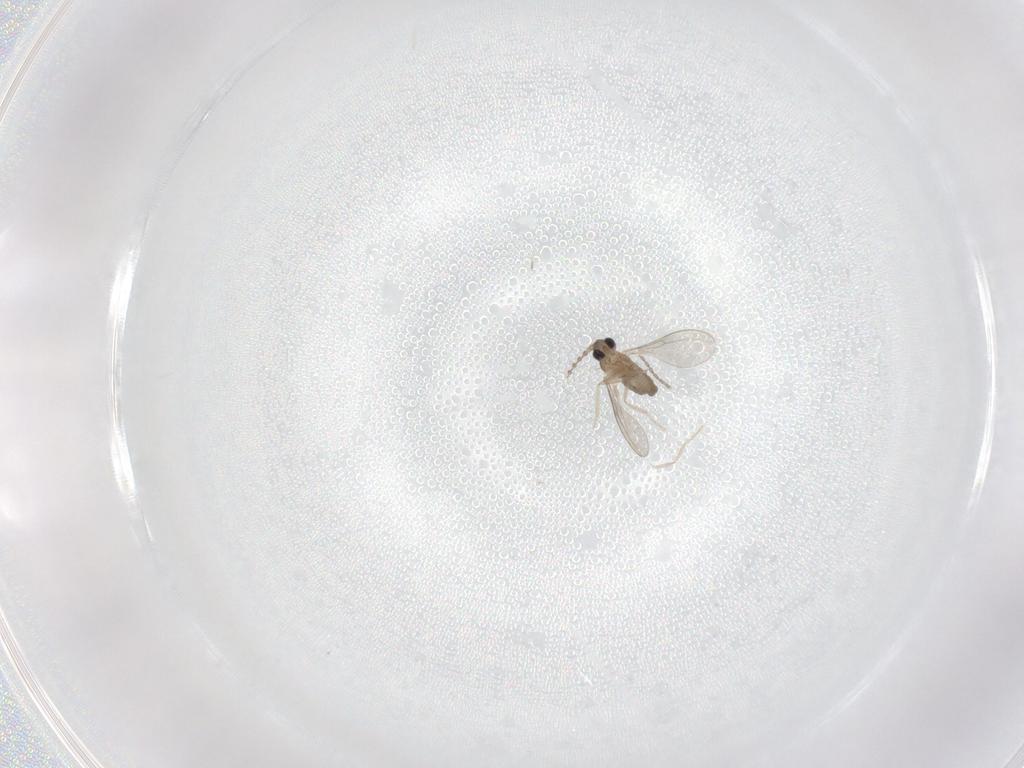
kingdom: Animalia
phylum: Arthropoda
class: Insecta
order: Diptera
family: Cecidomyiidae
